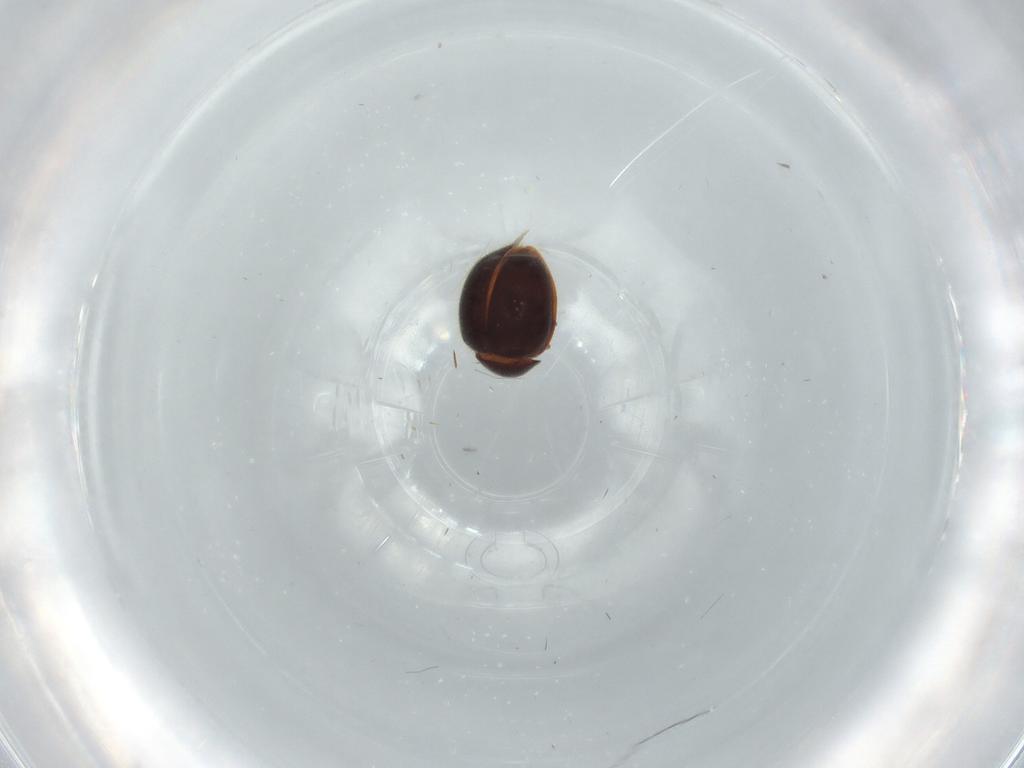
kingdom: Animalia
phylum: Arthropoda
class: Insecta
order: Coleoptera
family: Coccinellidae
